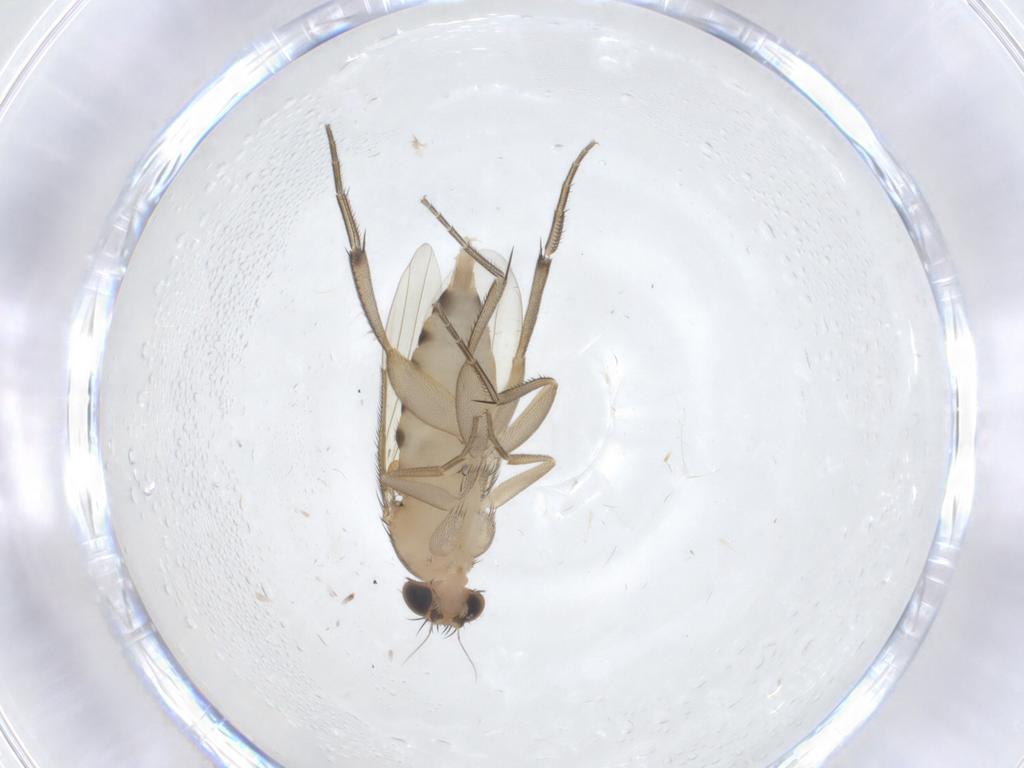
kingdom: Animalia
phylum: Arthropoda
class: Insecta
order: Diptera
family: Phoridae
